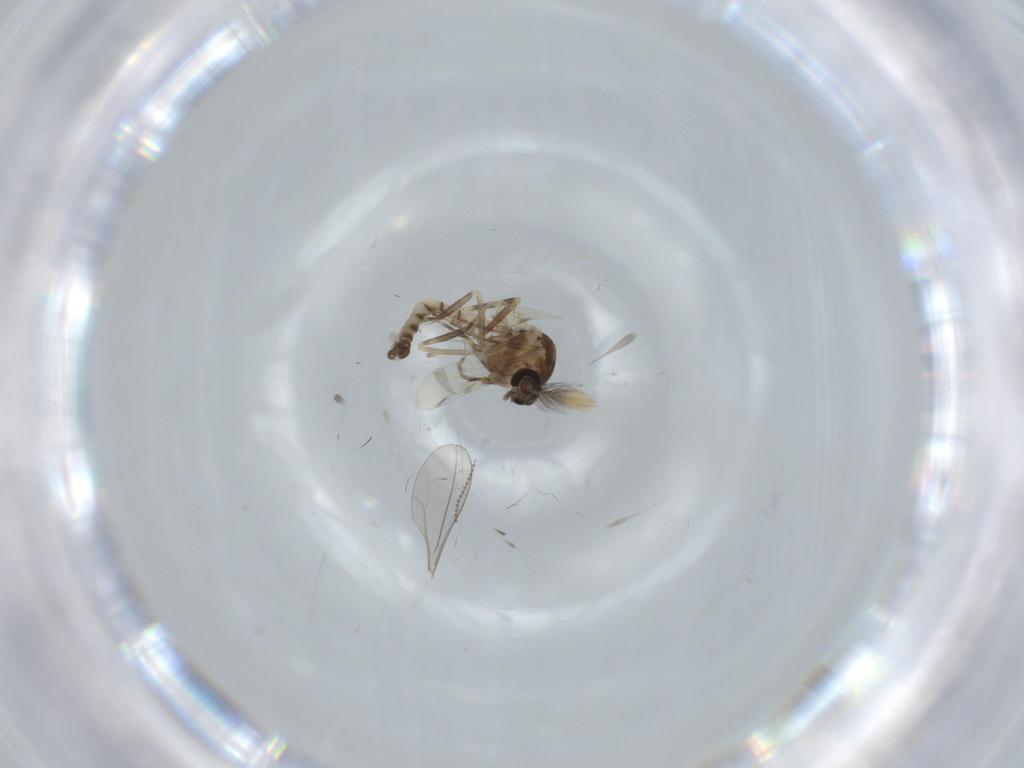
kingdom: Animalia
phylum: Arthropoda
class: Insecta
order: Diptera
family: Ceratopogonidae
